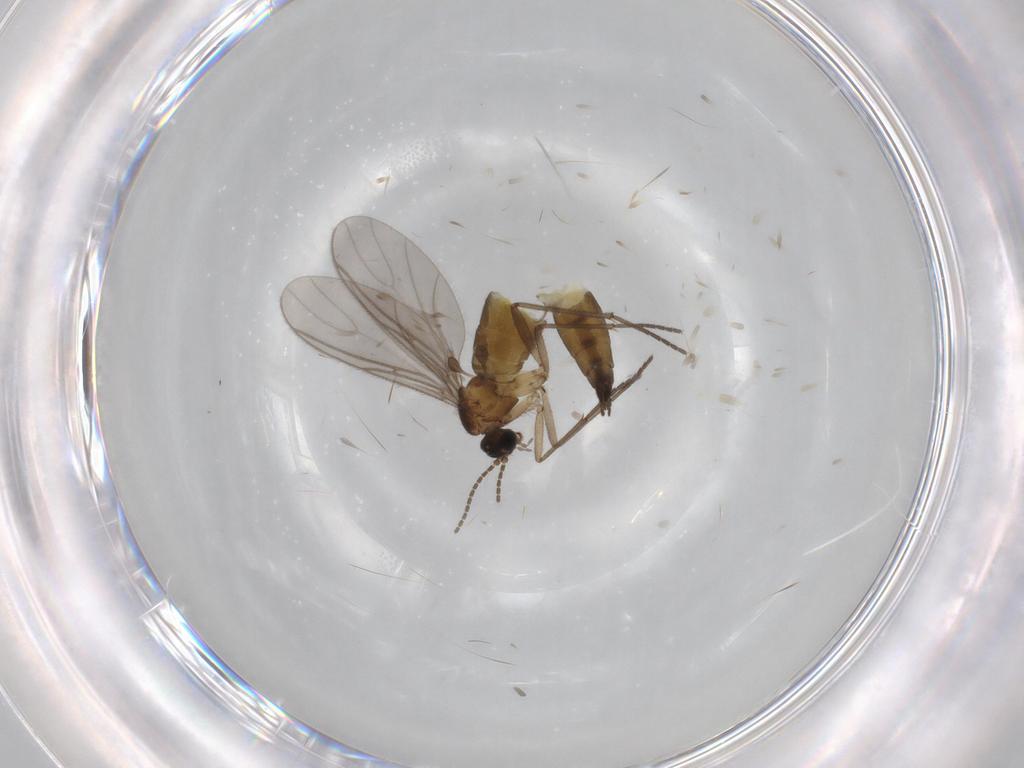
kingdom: Animalia
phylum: Arthropoda
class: Insecta
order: Diptera
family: Sciaridae
